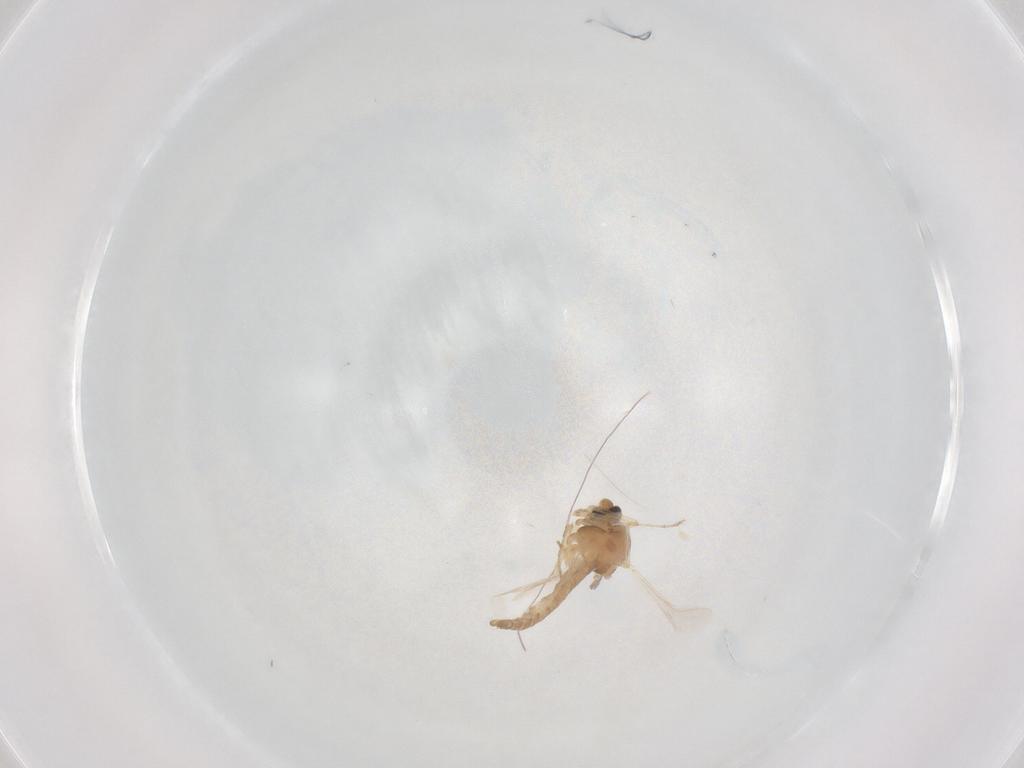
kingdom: Animalia
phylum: Arthropoda
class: Insecta
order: Diptera
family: Ceratopogonidae
